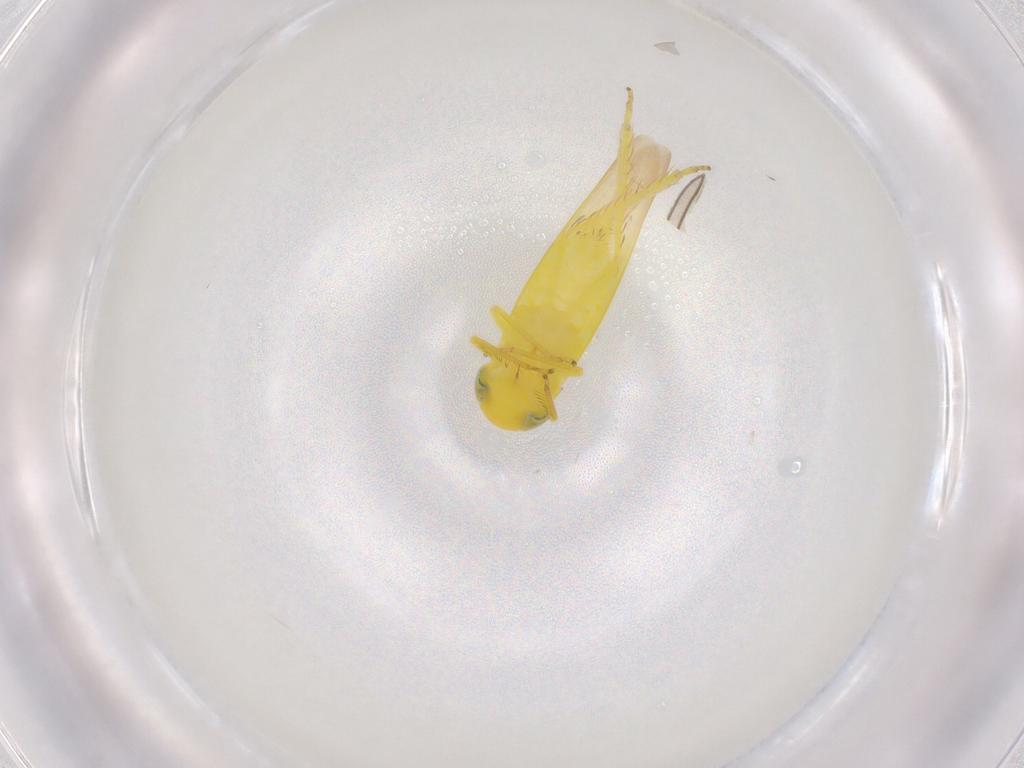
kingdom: Animalia
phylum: Arthropoda
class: Insecta
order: Hemiptera
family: Cicadellidae
